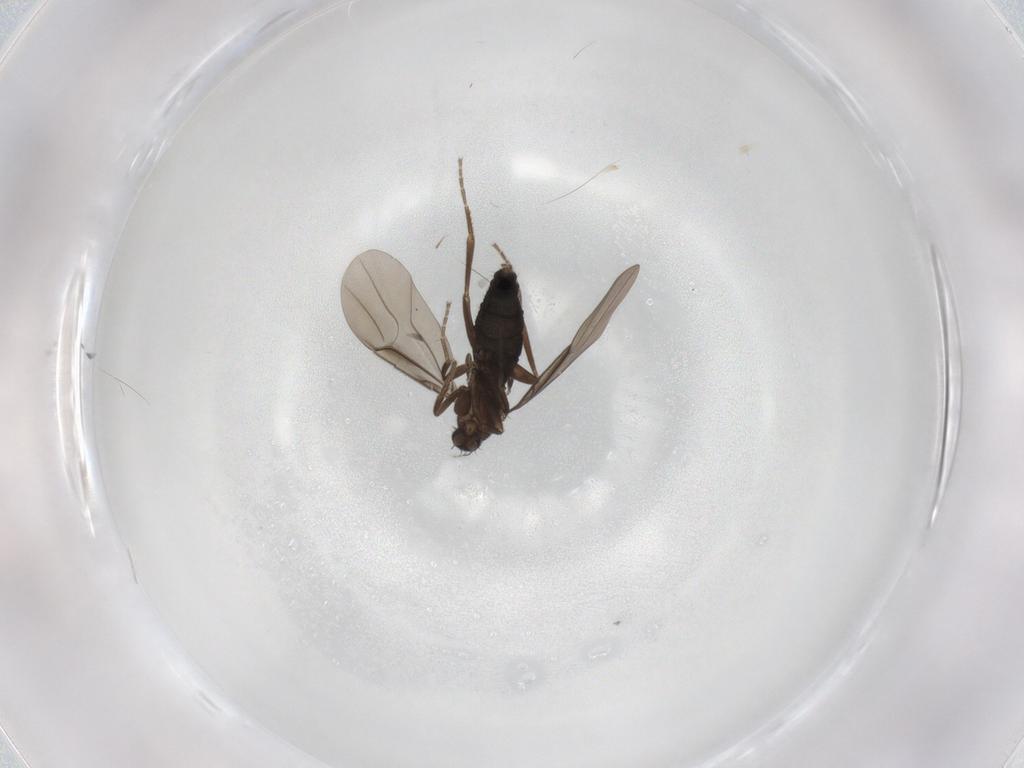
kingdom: Animalia
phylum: Arthropoda
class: Insecta
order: Diptera
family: Phoridae
